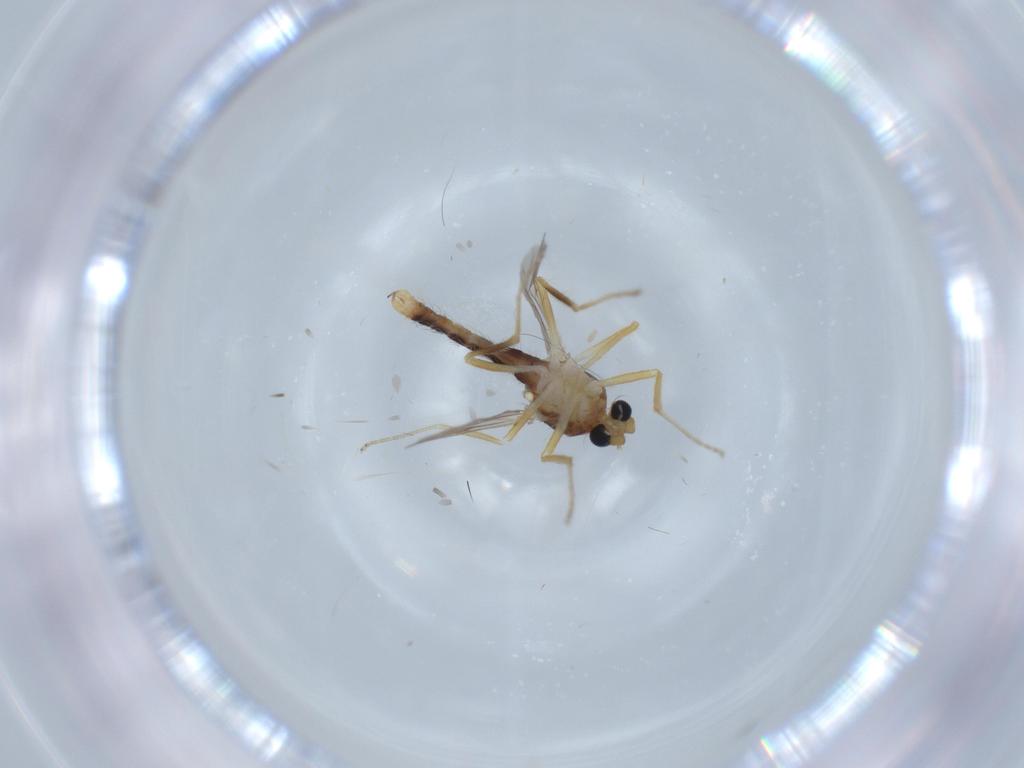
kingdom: Animalia
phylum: Arthropoda
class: Insecta
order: Diptera
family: Ceratopogonidae
